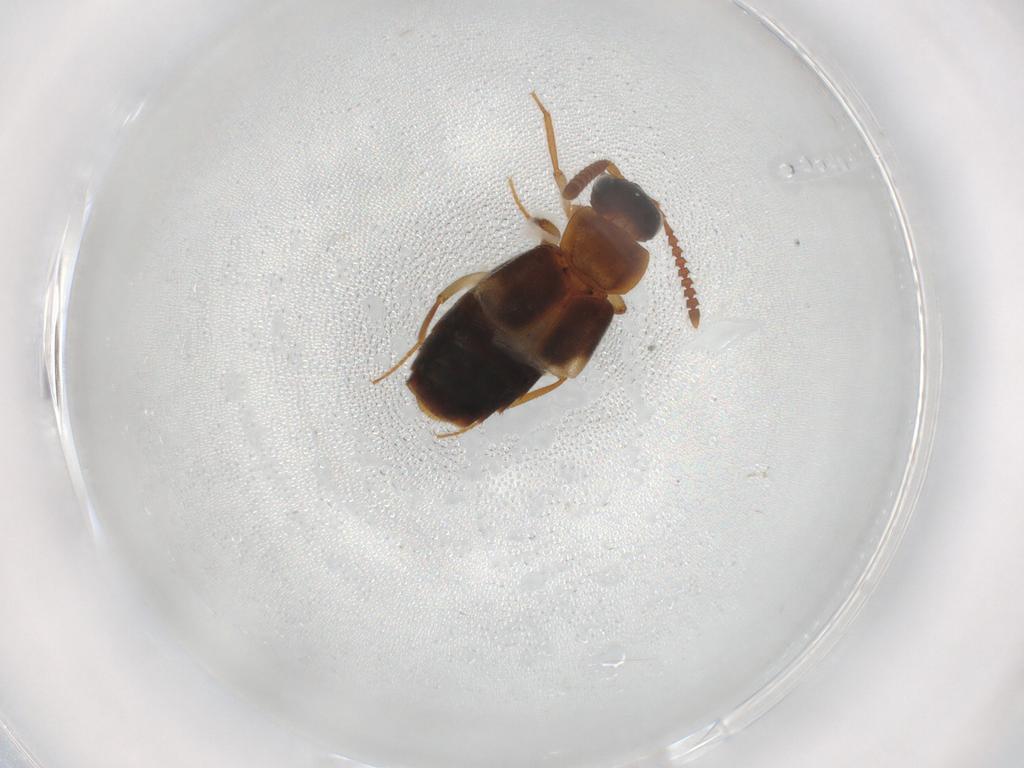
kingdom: Animalia
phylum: Arthropoda
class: Insecta
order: Coleoptera
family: Staphylinidae
